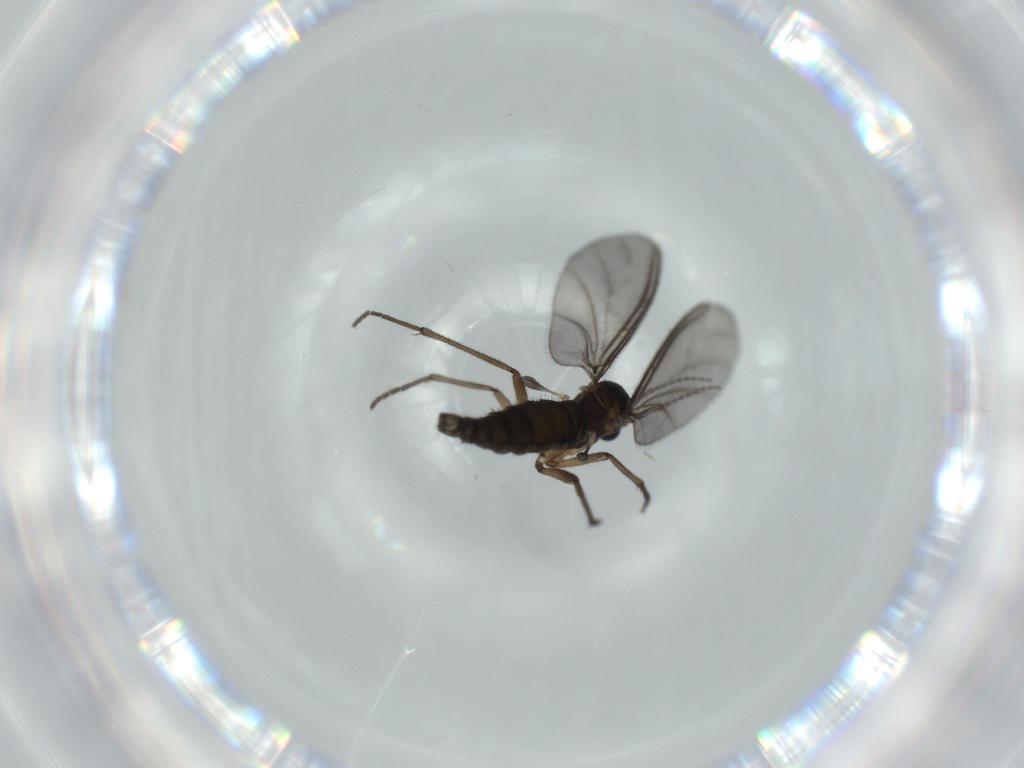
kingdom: Animalia
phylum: Arthropoda
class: Insecta
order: Diptera
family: Sciaridae
